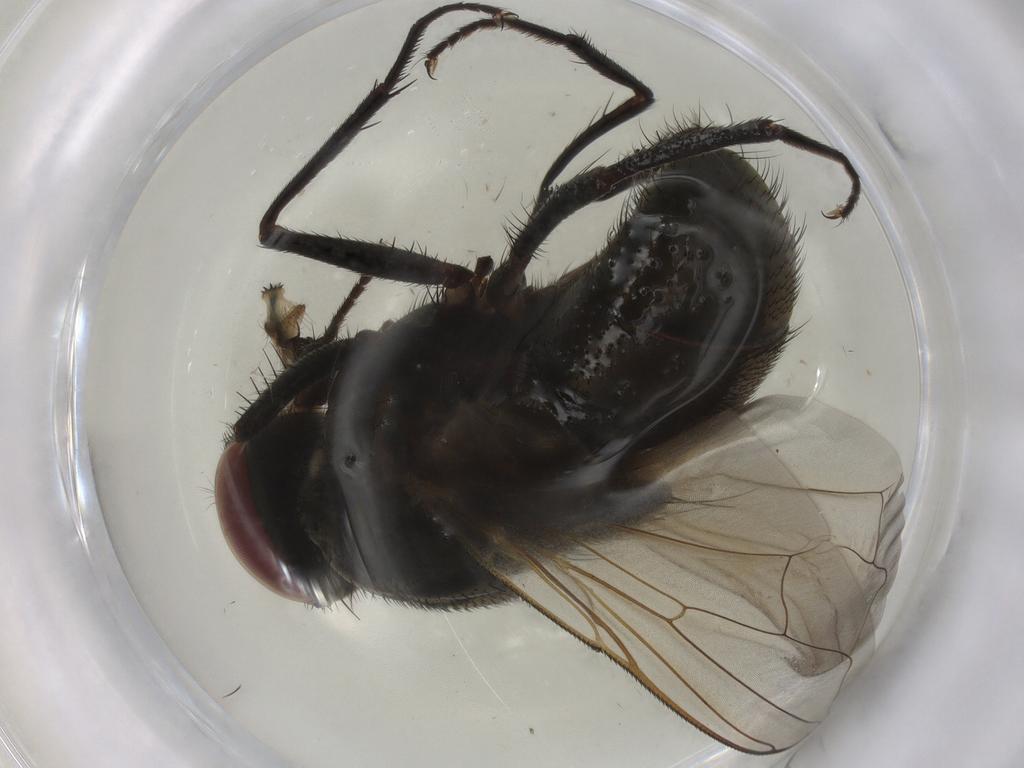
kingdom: Animalia
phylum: Arthropoda
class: Insecta
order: Diptera
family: Muscidae
